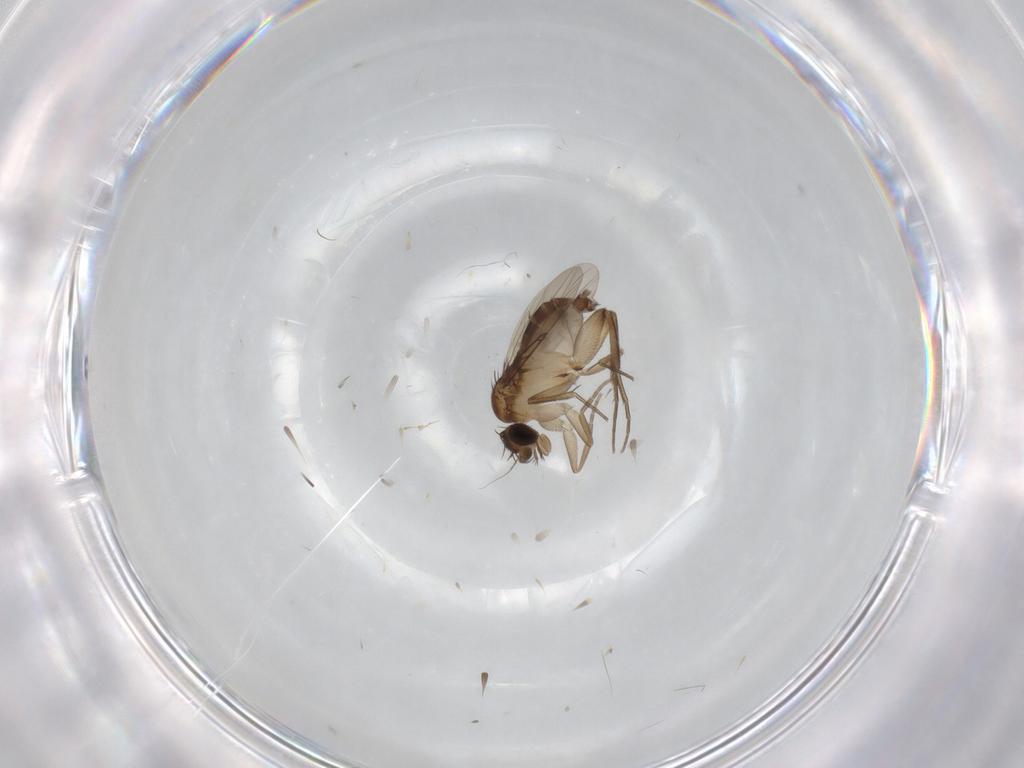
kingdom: Animalia
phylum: Arthropoda
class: Insecta
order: Diptera
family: Phoridae
